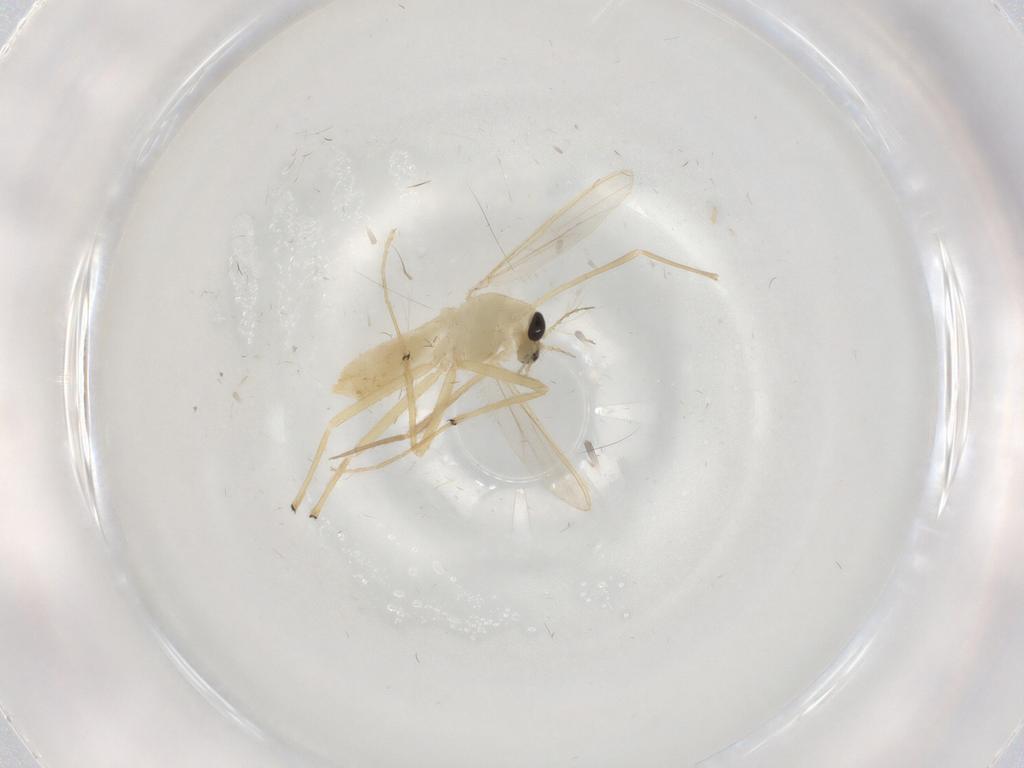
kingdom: Animalia
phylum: Arthropoda
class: Insecta
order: Diptera
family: Chironomidae
